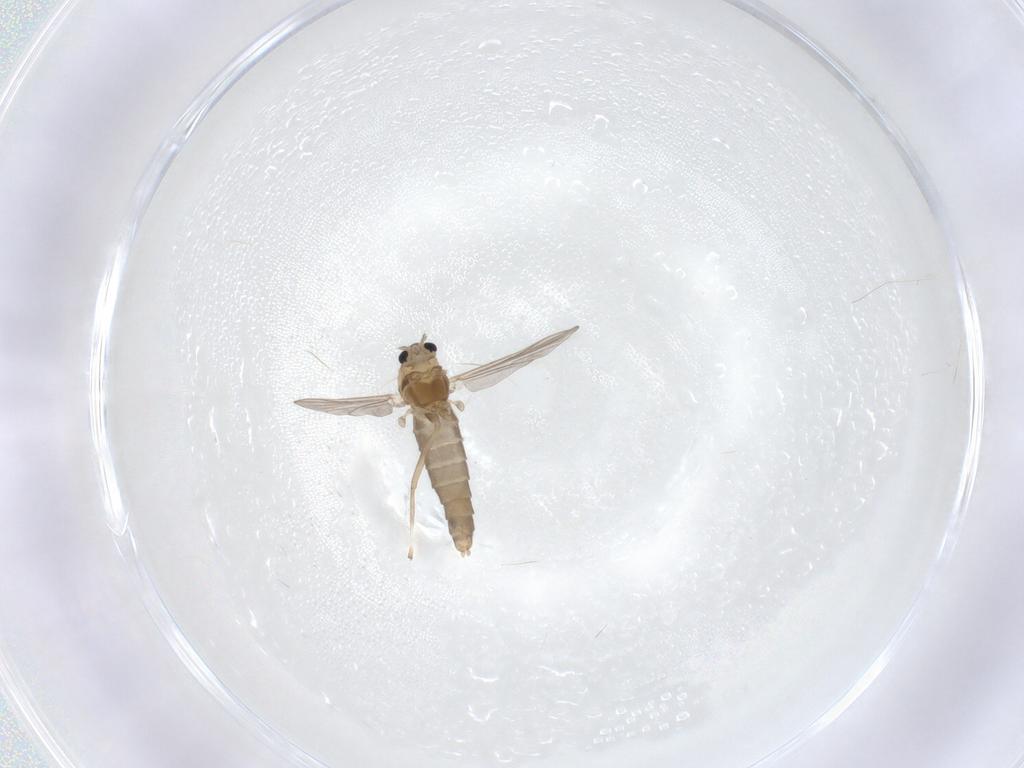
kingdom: Animalia
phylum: Arthropoda
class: Insecta
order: Diptera
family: Chironomidae
